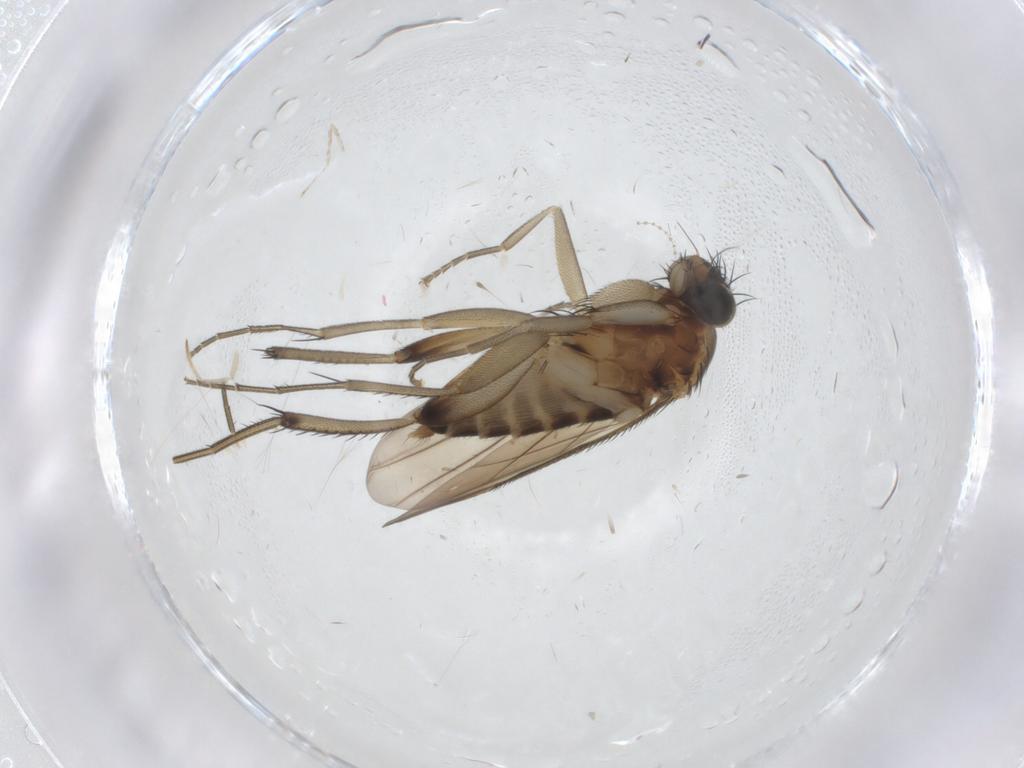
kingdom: Animalia
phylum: Arthropoda
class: Insecta
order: Diptera
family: Phoridae
